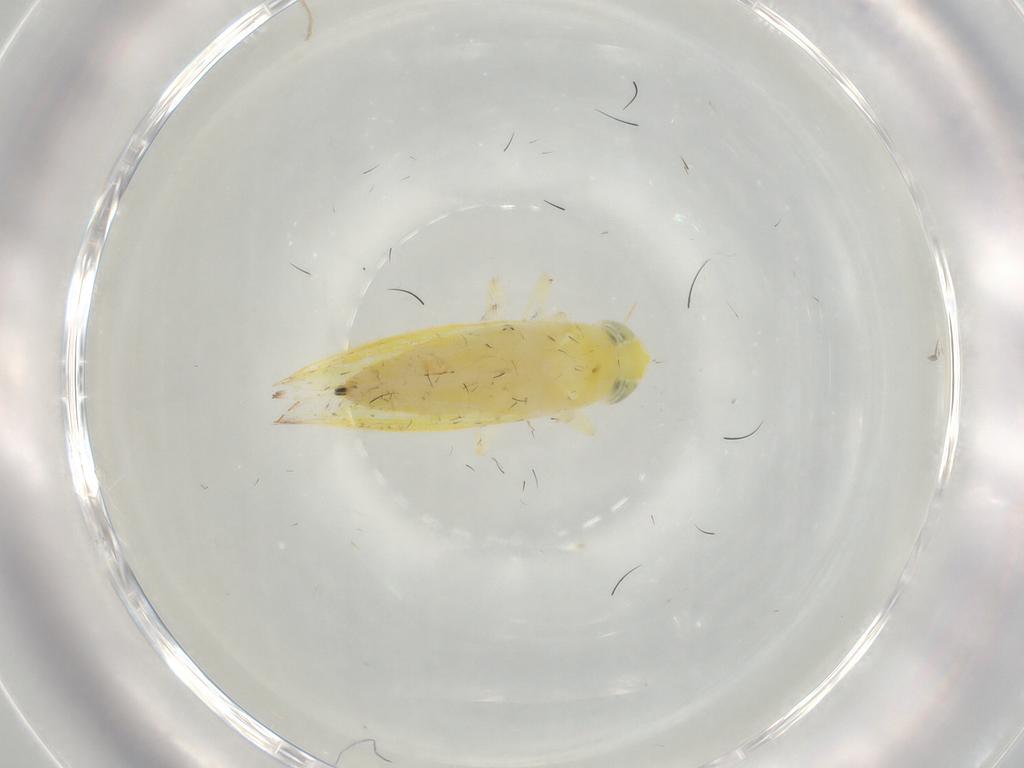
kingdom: Animalia
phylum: Arthropoda
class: Insecta
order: Hemiptera
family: Cicadellidae
